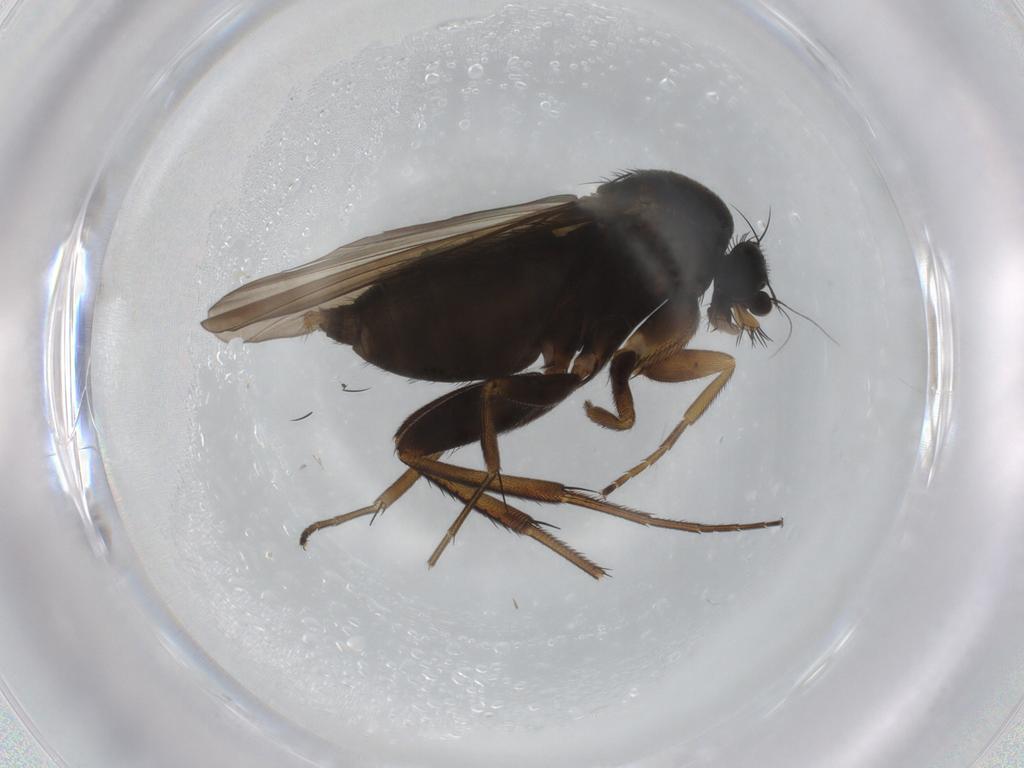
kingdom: Animalia
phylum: Arthropoda
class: Insecta
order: Diptera
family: Phoridae
